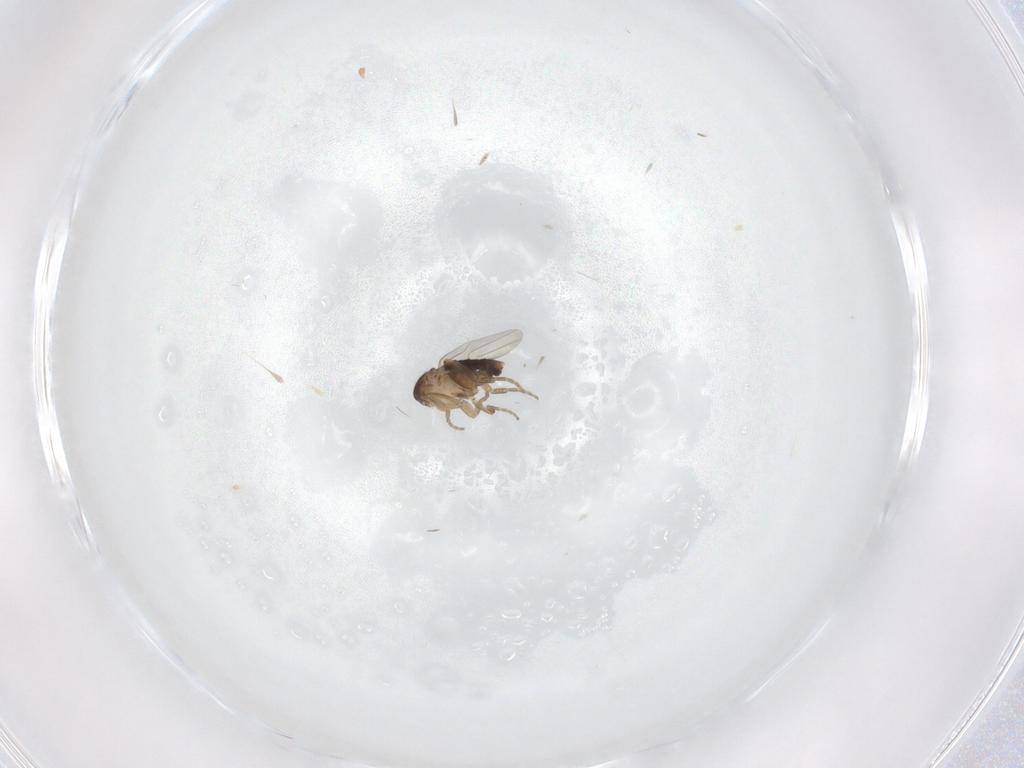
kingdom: Animalia
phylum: Arthropoda
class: Insecta
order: Diptera
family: Phoridae
